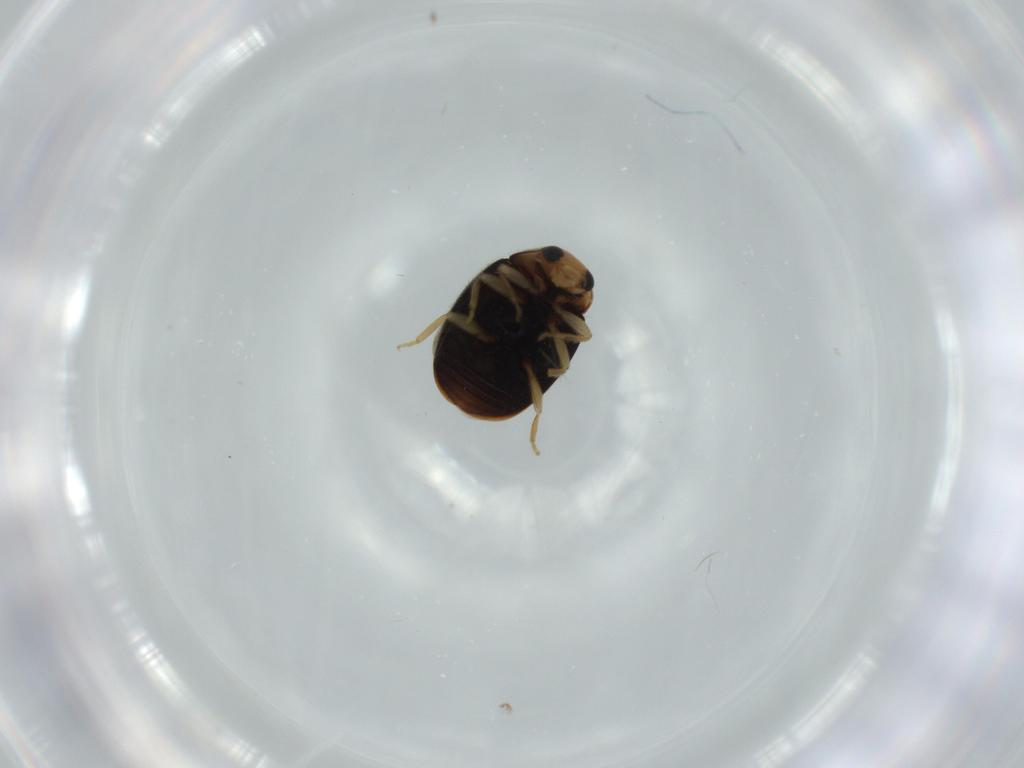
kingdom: Animalia
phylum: Arthropoda
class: Insecta
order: Coleoptera
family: Coccinellidae
